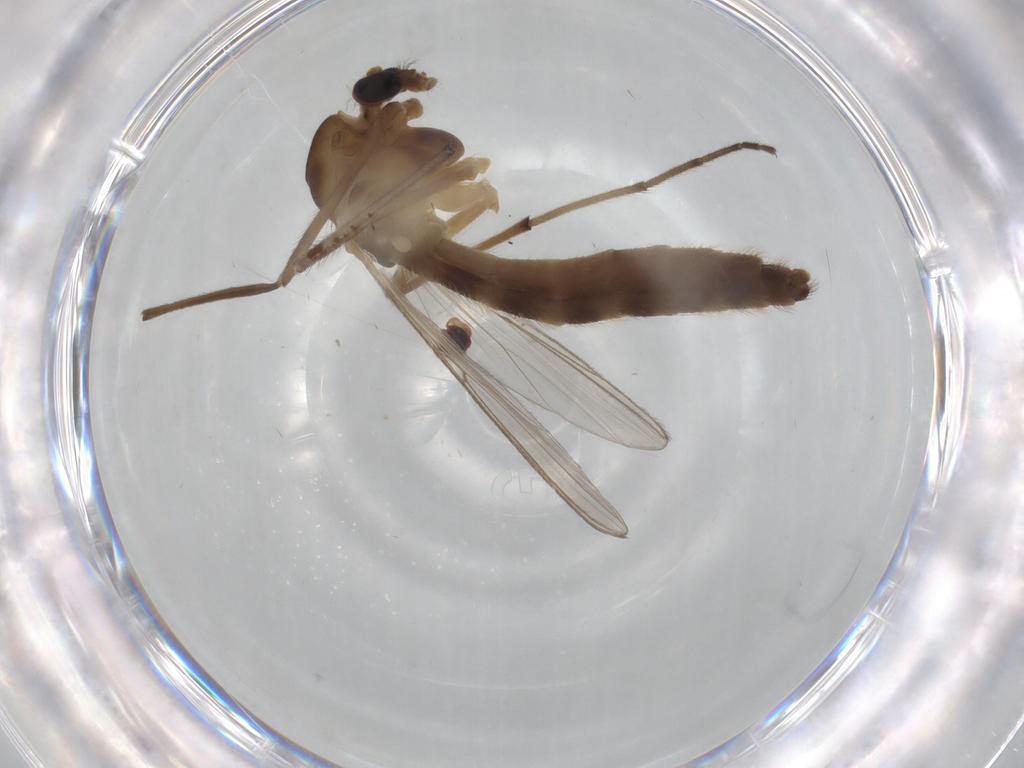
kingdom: Animalia
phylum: Arthropoda
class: Insecta
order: Diptera
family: Chironomidae
